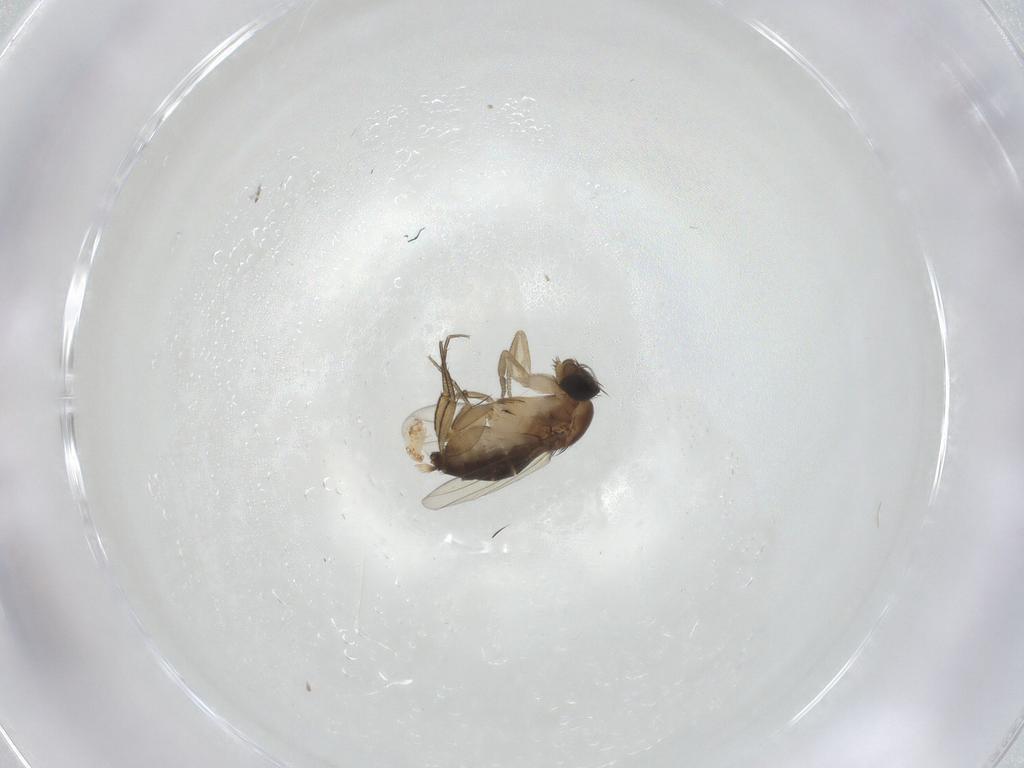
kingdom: Animalia
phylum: Arthropoda
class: Insecta
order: Diptera
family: Phoridae
